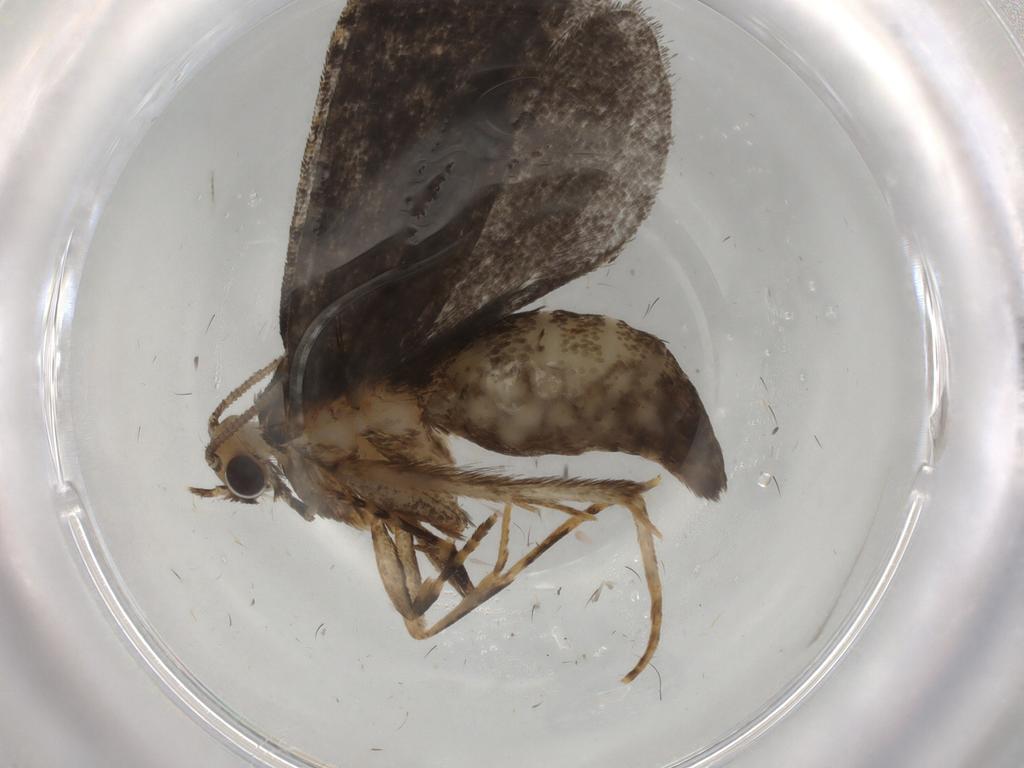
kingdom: Animalia
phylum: Arthropoda
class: Insecta
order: Lepidoptera
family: Tineidae
